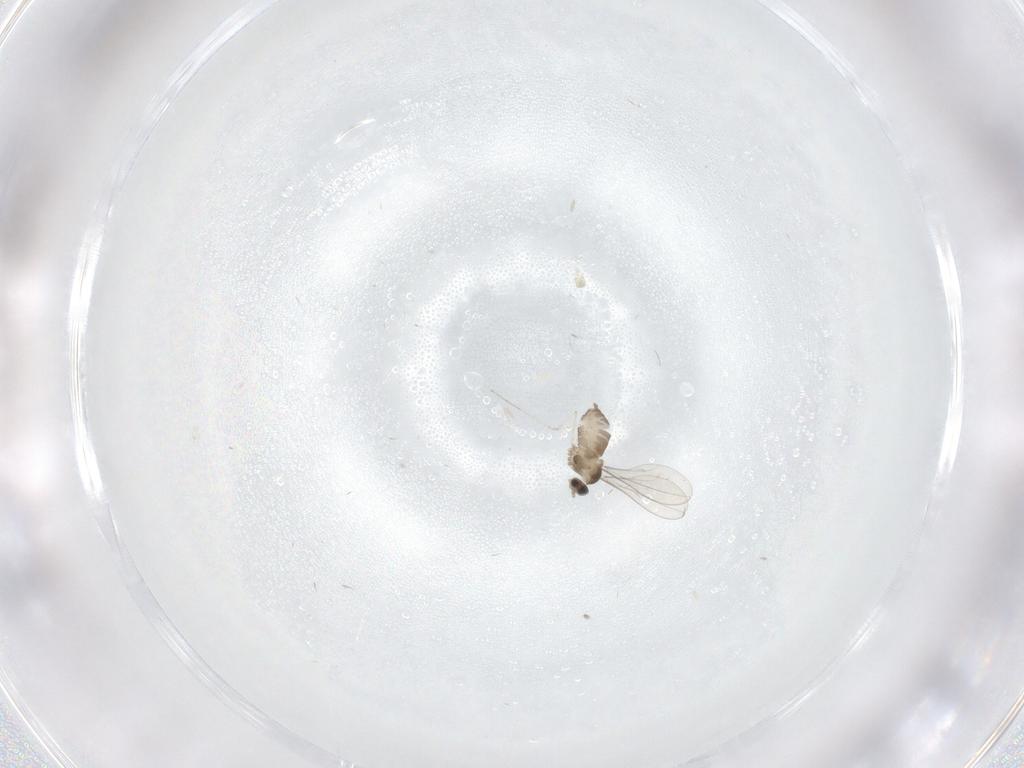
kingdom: Animalia
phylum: Arthropoda
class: Insecta
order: Diptera
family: Cecidomyiidae
